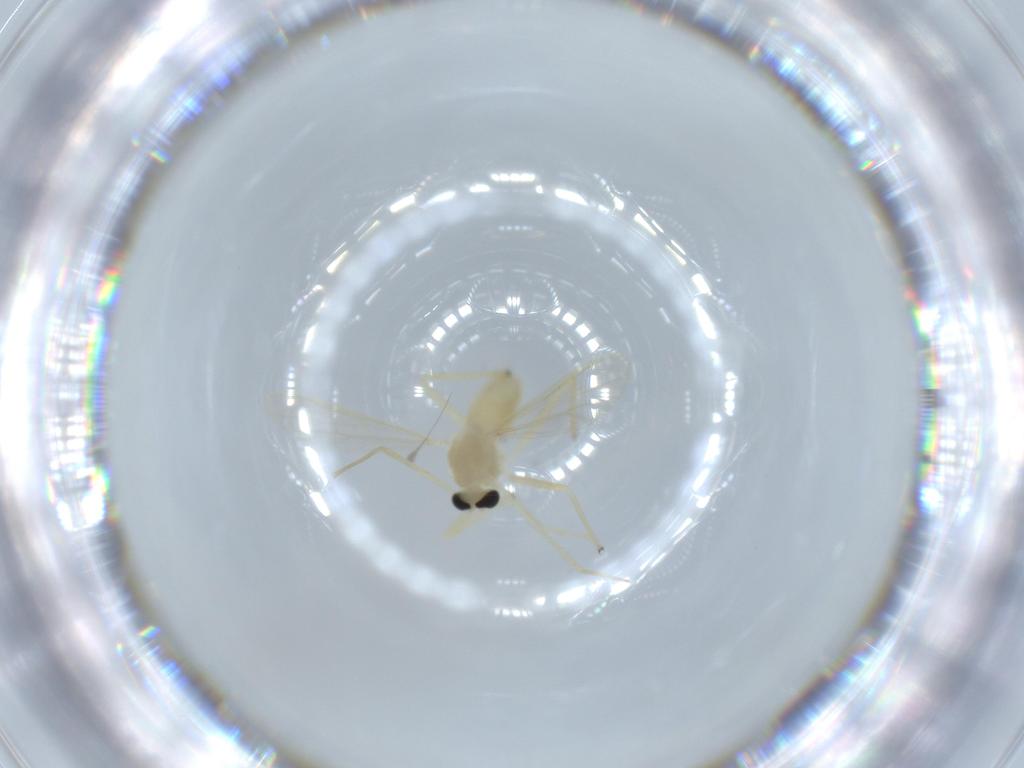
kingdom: Animalia
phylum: Arthropoda
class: Insecta
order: Diptera
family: Chironomidae
